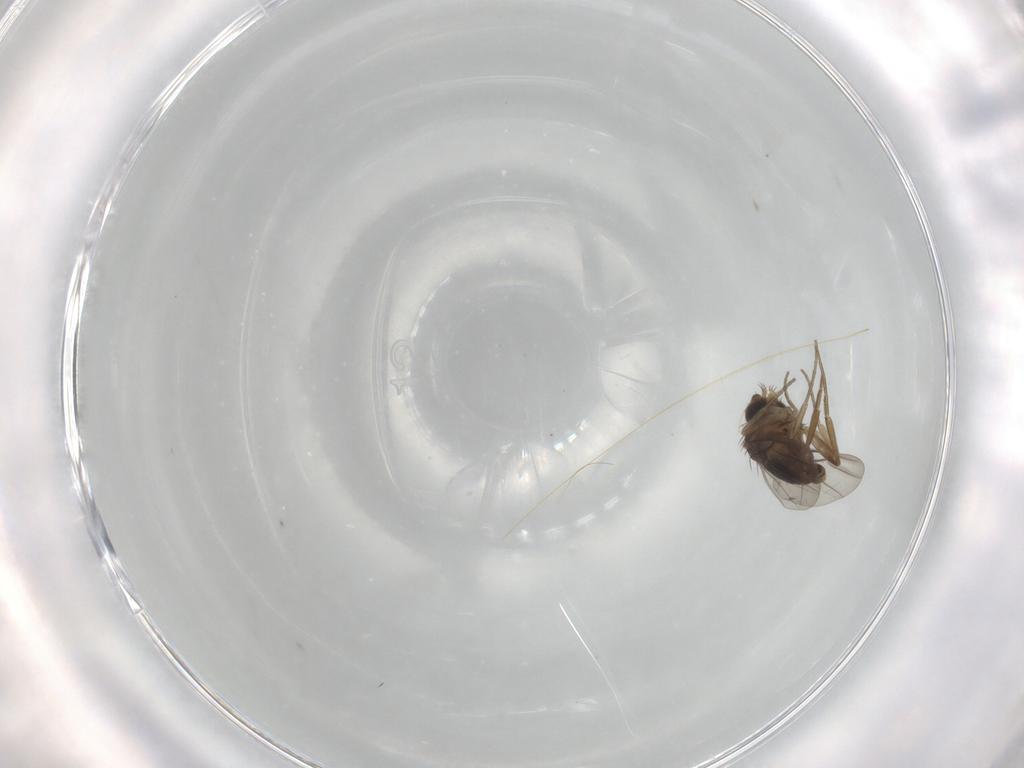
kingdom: Animalia
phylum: Arthropoda
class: Insecta
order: Diptera
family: Phoridae
